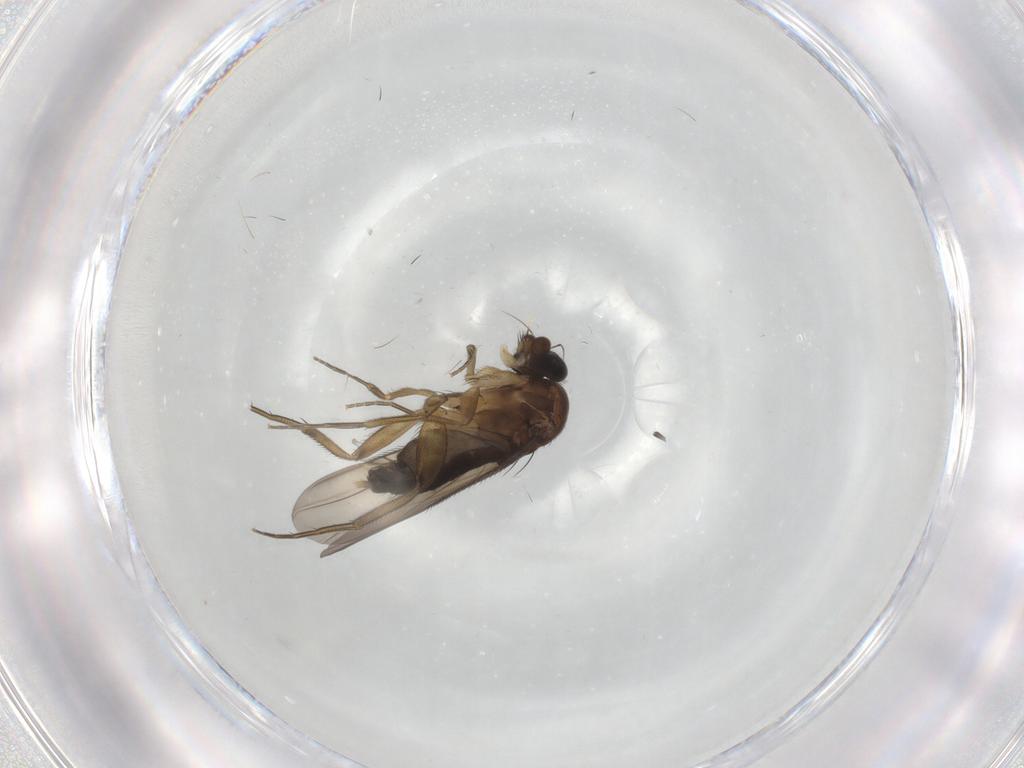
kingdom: Animalia
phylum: Arthropoda
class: Insecta
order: Diptera
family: Phoridae
